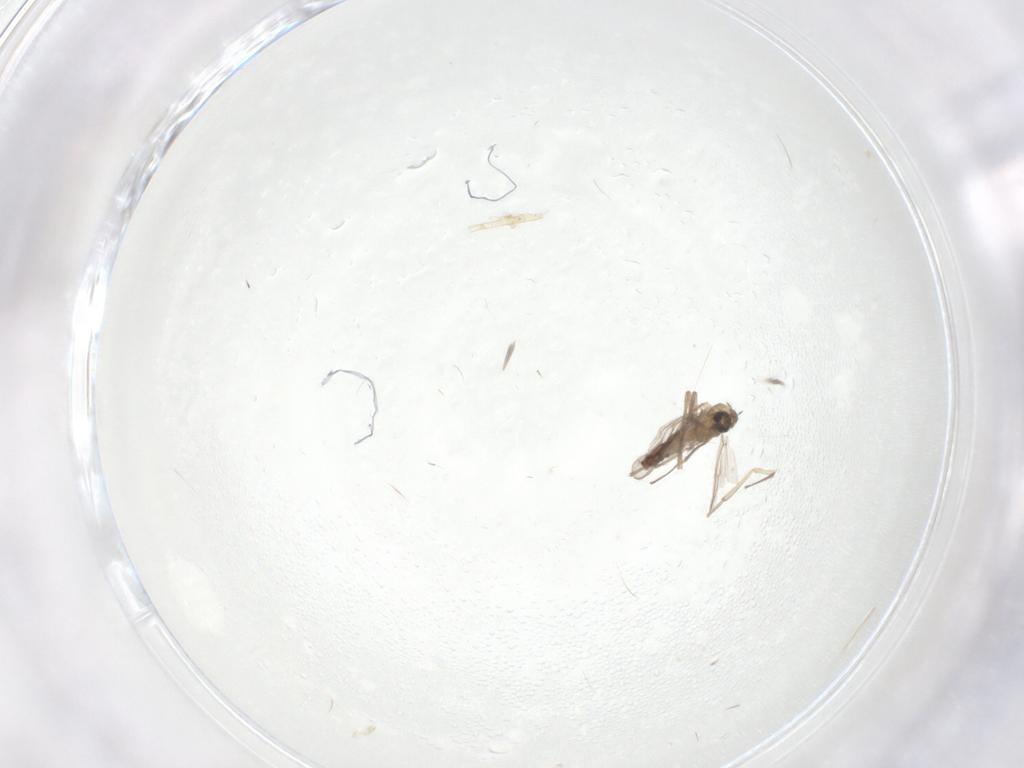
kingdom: Animalia
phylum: Arthropoda
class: Insecta
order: Diptera
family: Chironomidae
